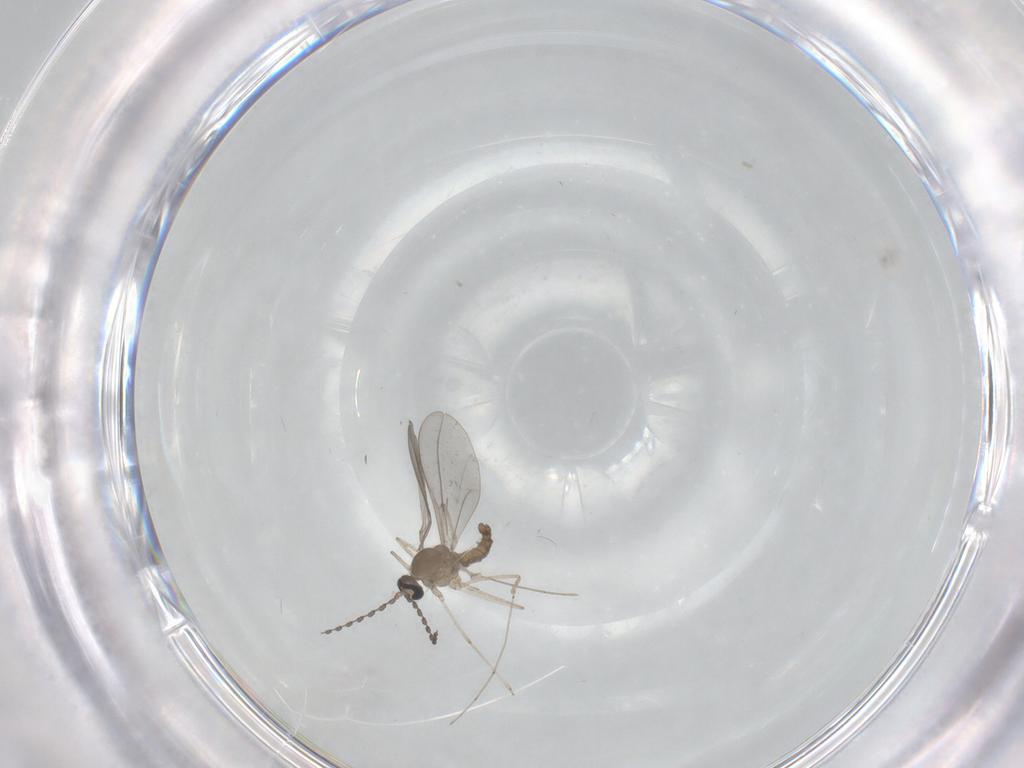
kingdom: Animalia
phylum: Arthropoda
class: Insecta
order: Diptera
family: Cecidomyiidae
